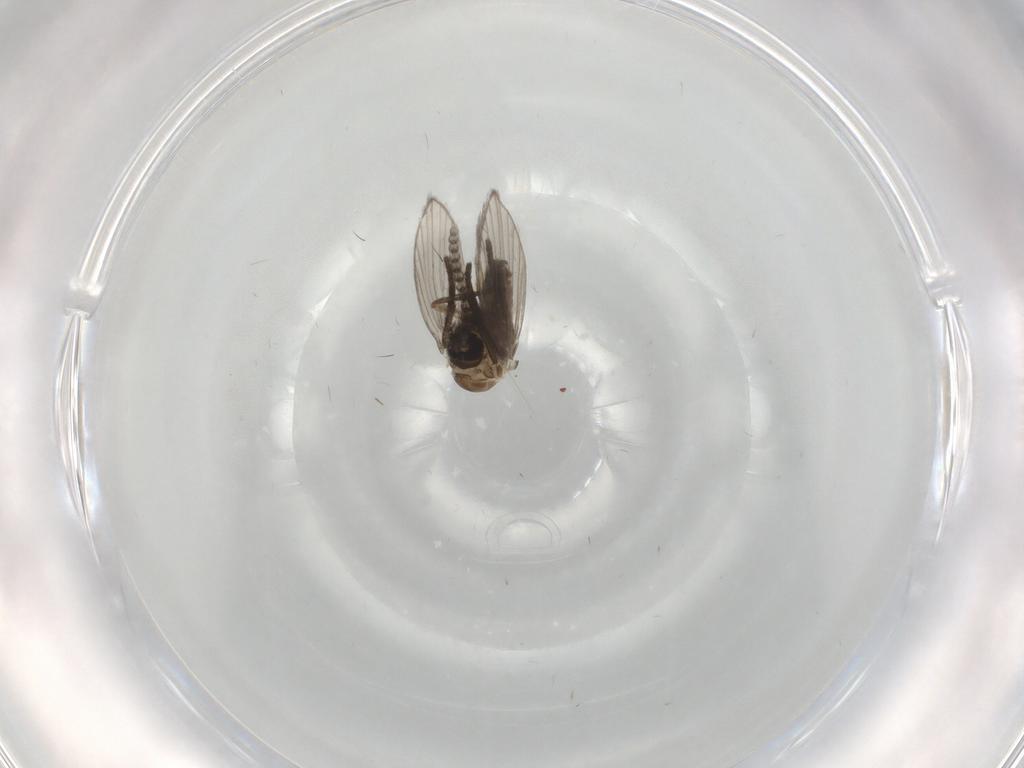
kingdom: Animalia
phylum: Arthropoda
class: Insecta
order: Diptera
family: Psychodidae
